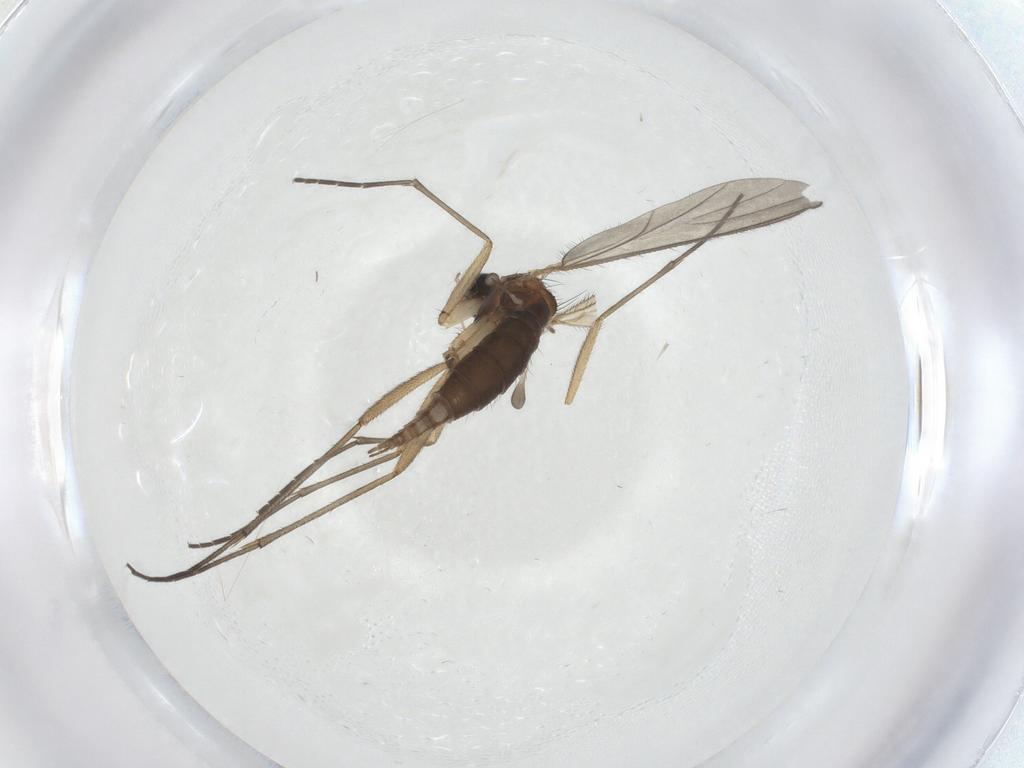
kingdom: Animalia
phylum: Arthropoda
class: Insecta
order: Diptera
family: Sciaridae
